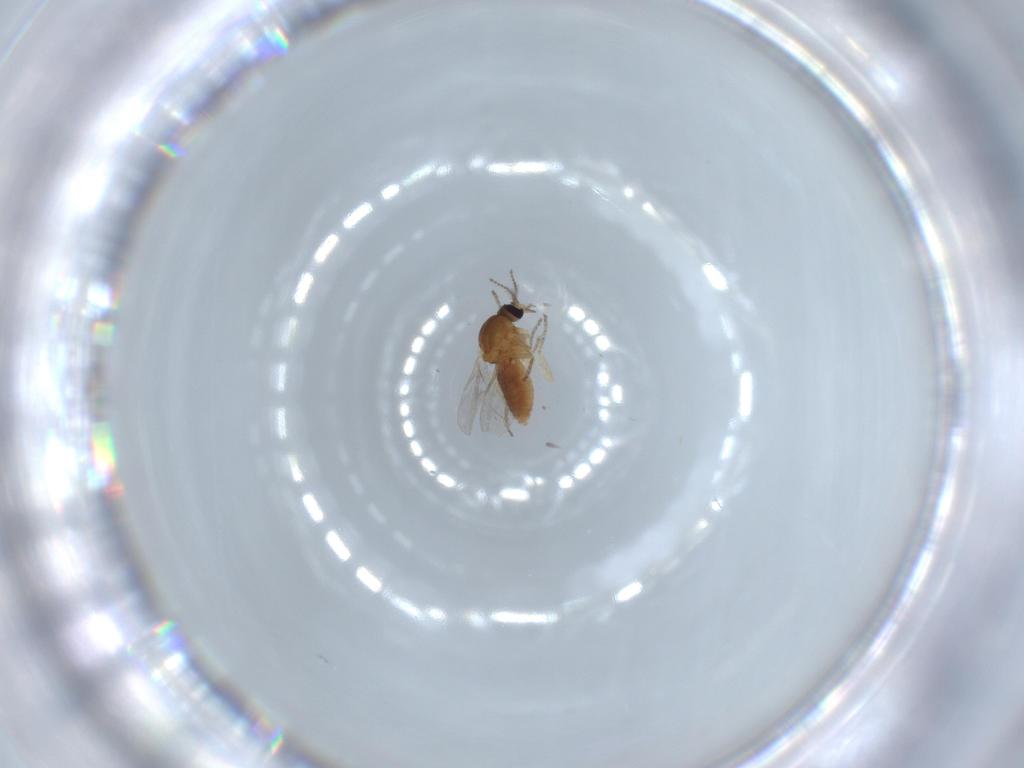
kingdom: Animalia
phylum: Arthropoda
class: Insecta
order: Diptera
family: Ceratopogonidae
